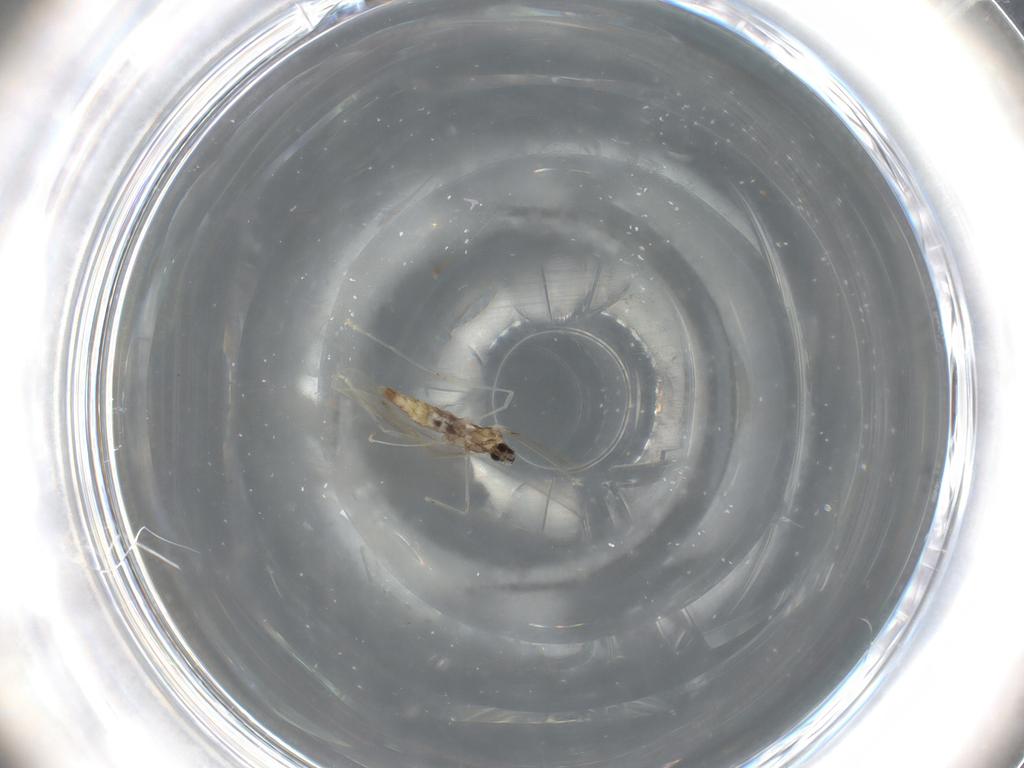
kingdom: Animalia
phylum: Arthropoda
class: Insecta
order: Diptera
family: Cecidomyiidae
